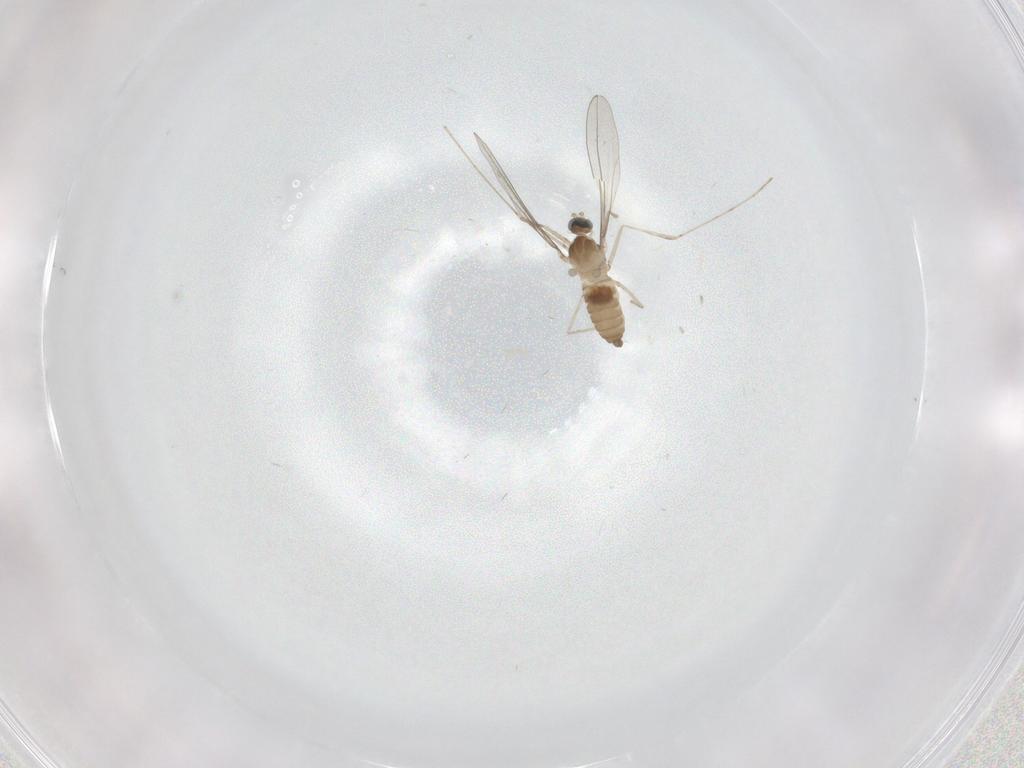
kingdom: Animalia
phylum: Arthropoda
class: Insecta
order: Diptera
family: Cecidomyiidae
